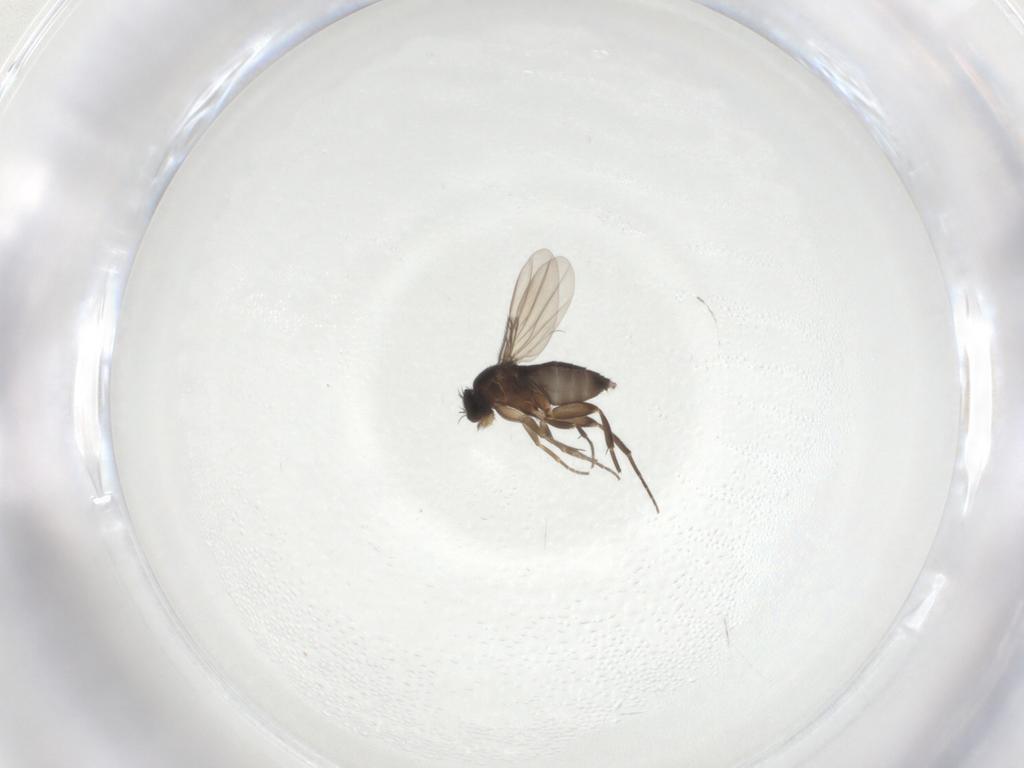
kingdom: Animalia
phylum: Arthropoda
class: Insecta
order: Diptera
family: Phoridae
